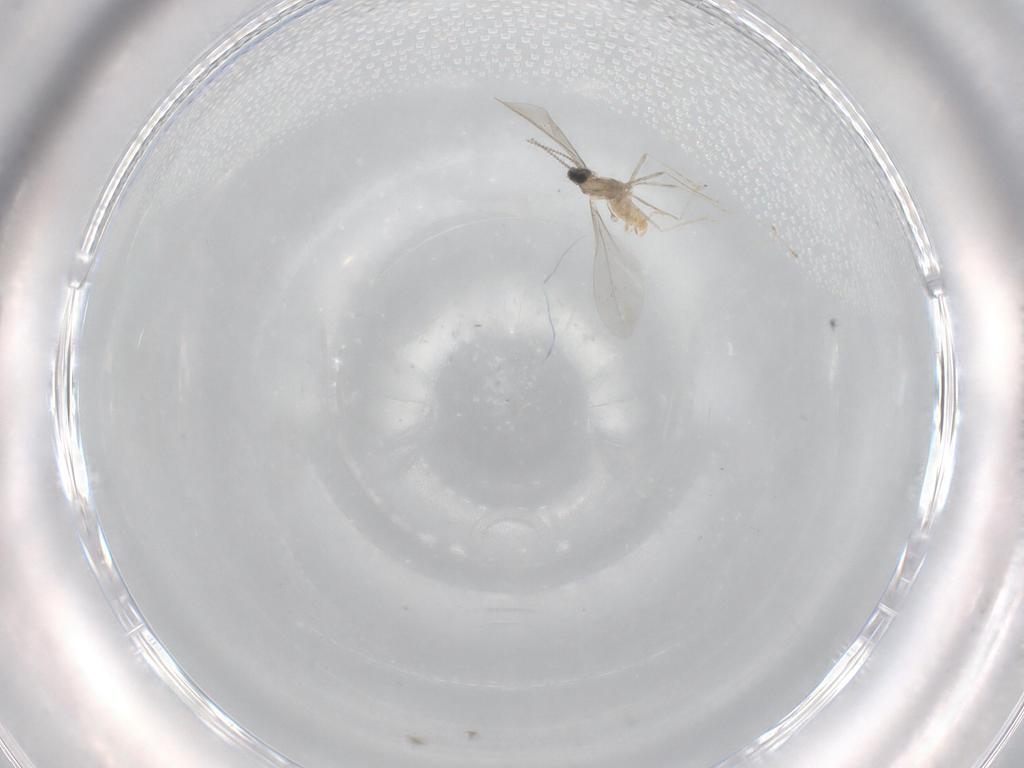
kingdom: Animalia
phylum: Arthropoda
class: Insecta
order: Diptera
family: Cecidomyiidae
